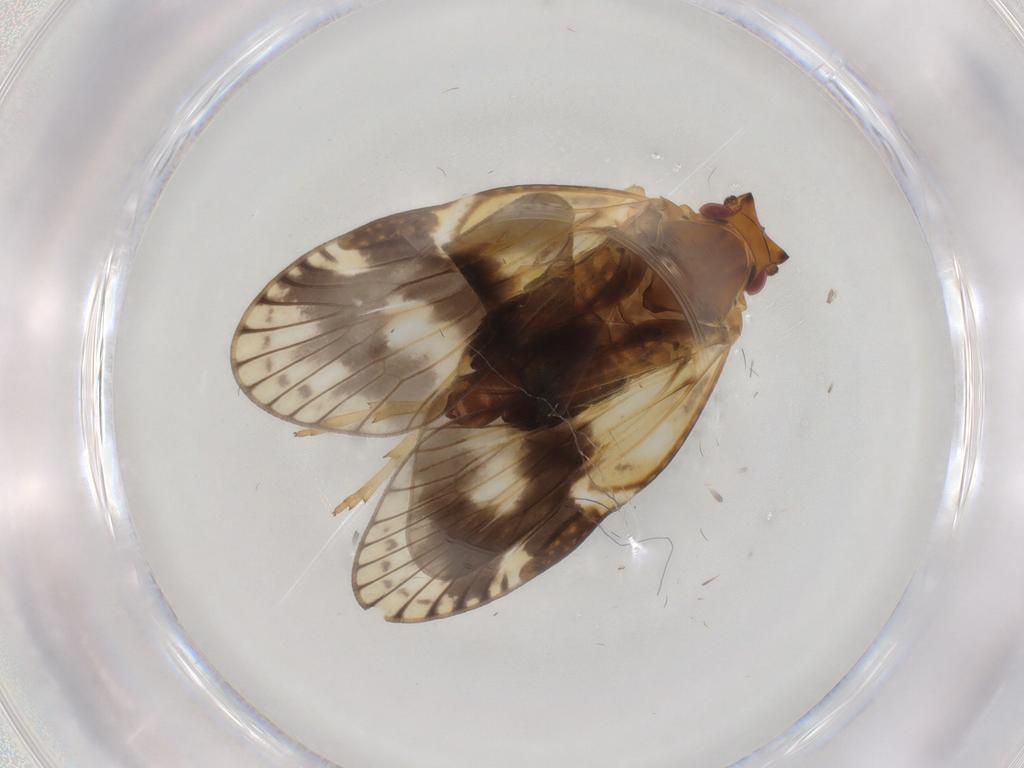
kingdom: Animalia
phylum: Arthropoda
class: Insecta
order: Hemiptera
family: Cixiidae
